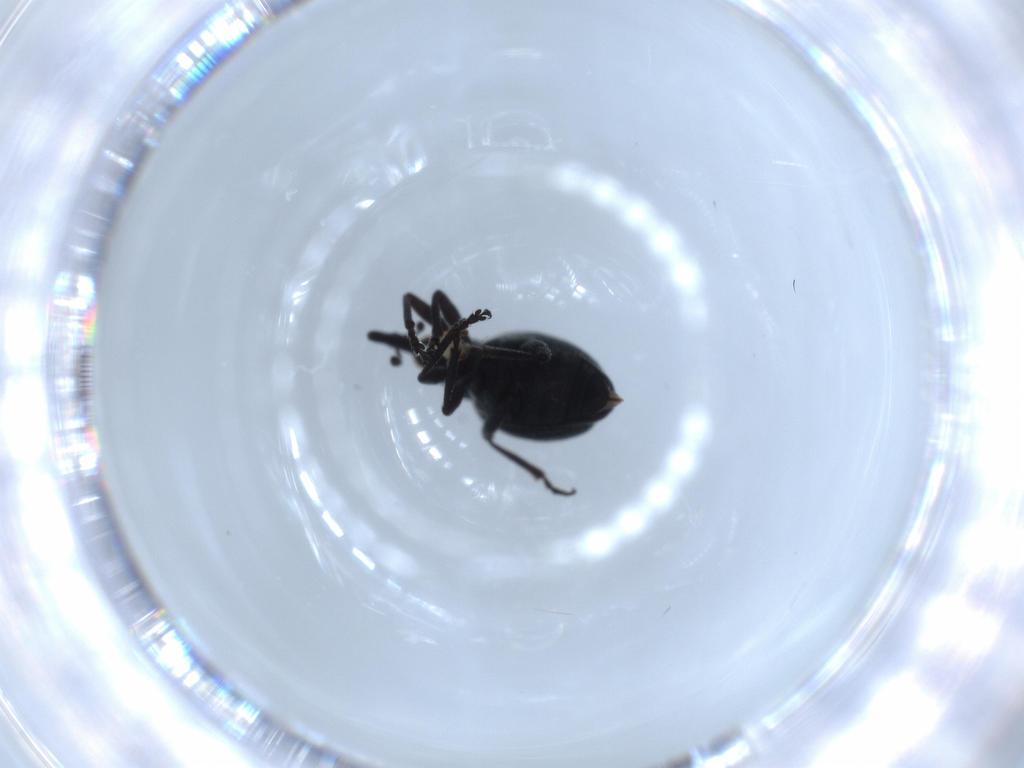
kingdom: Animalia
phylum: Arthropoda
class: Insecta
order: Coleoptera
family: Brentidae
